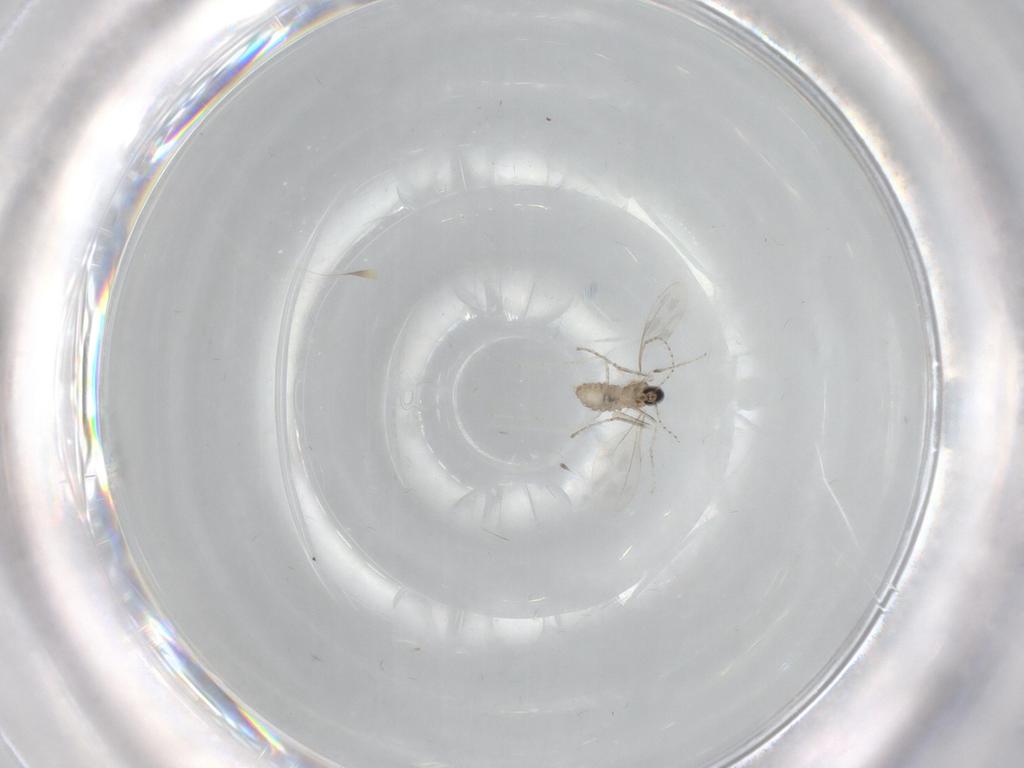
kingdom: Animalia
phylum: Arthropoda
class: Insecta
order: Diptera
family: Cecidomyiidae
